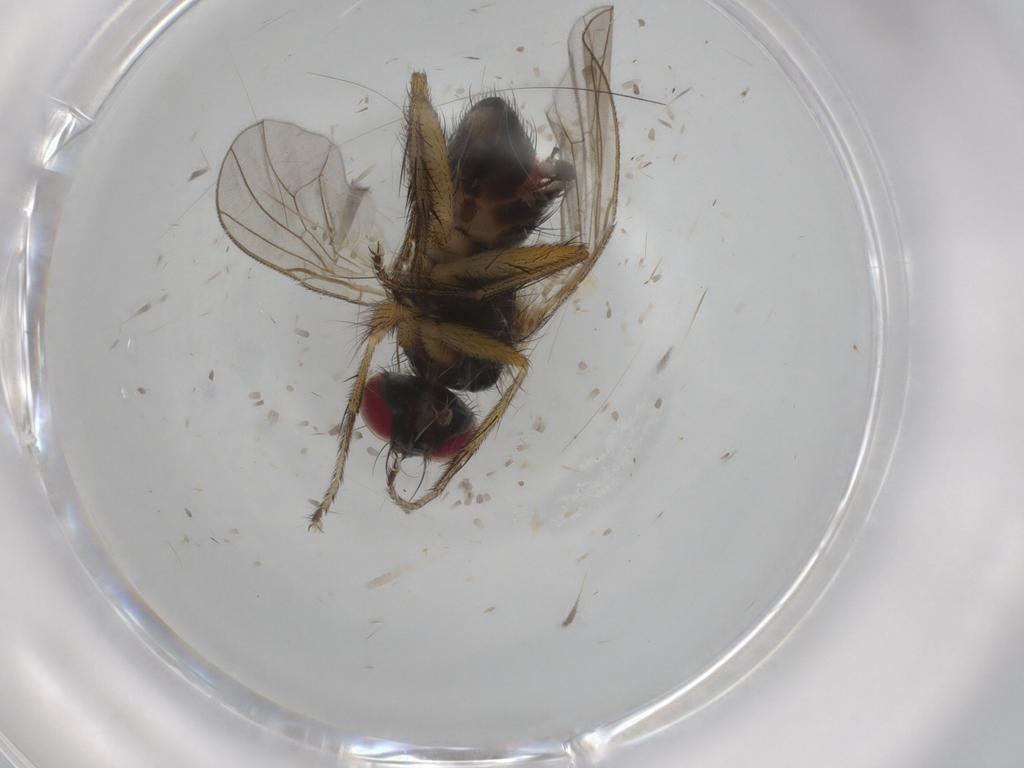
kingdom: Animalia
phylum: Arthropoda
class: Insecta
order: Diptera
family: Muscidae
